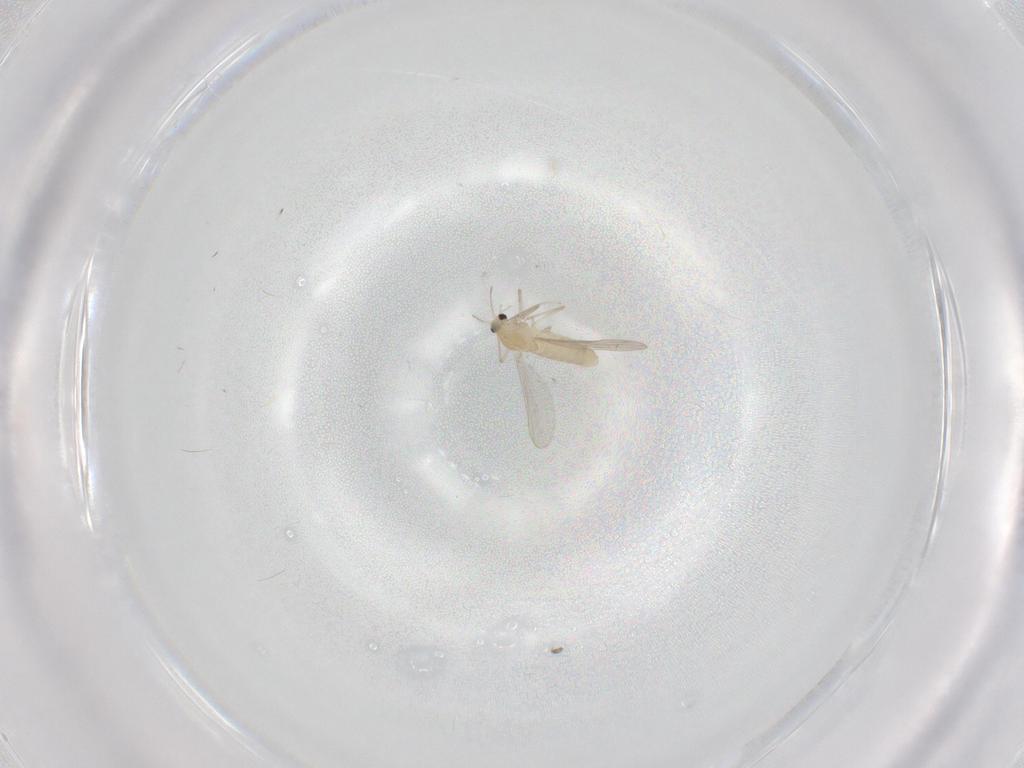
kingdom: Animalia
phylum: Arthropoda
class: Insecta
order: Diptera
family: Chironomidae
